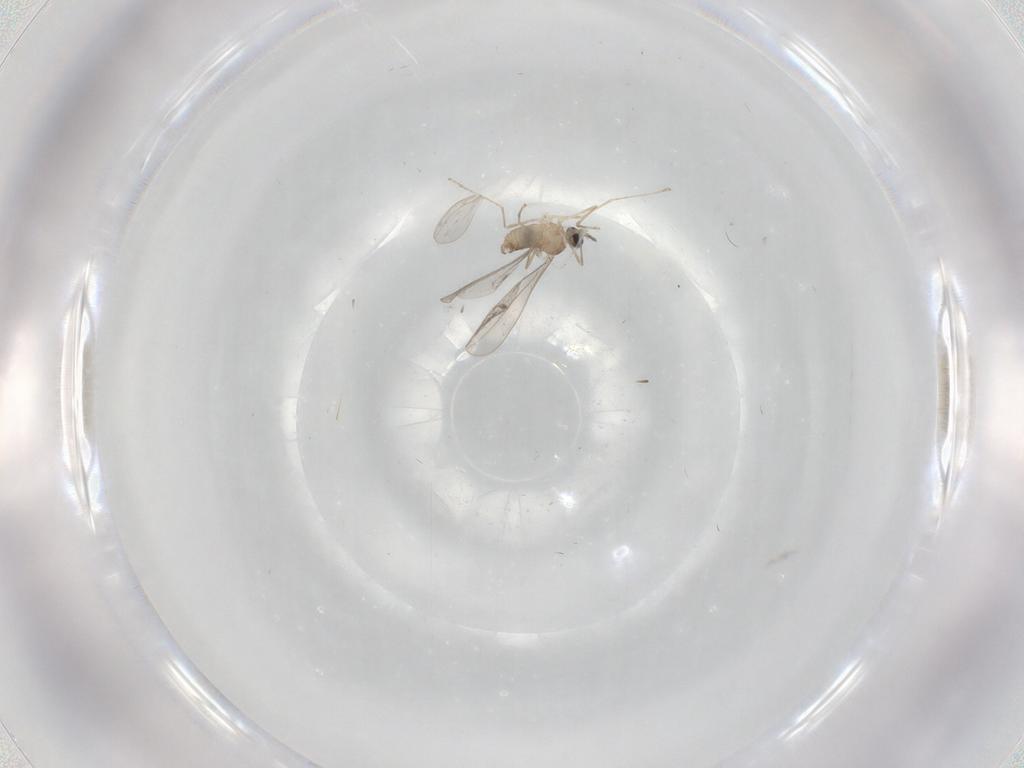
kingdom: Animalia
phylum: Arthropoda
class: Insecta
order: Diptera
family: Cecidomyiidae
